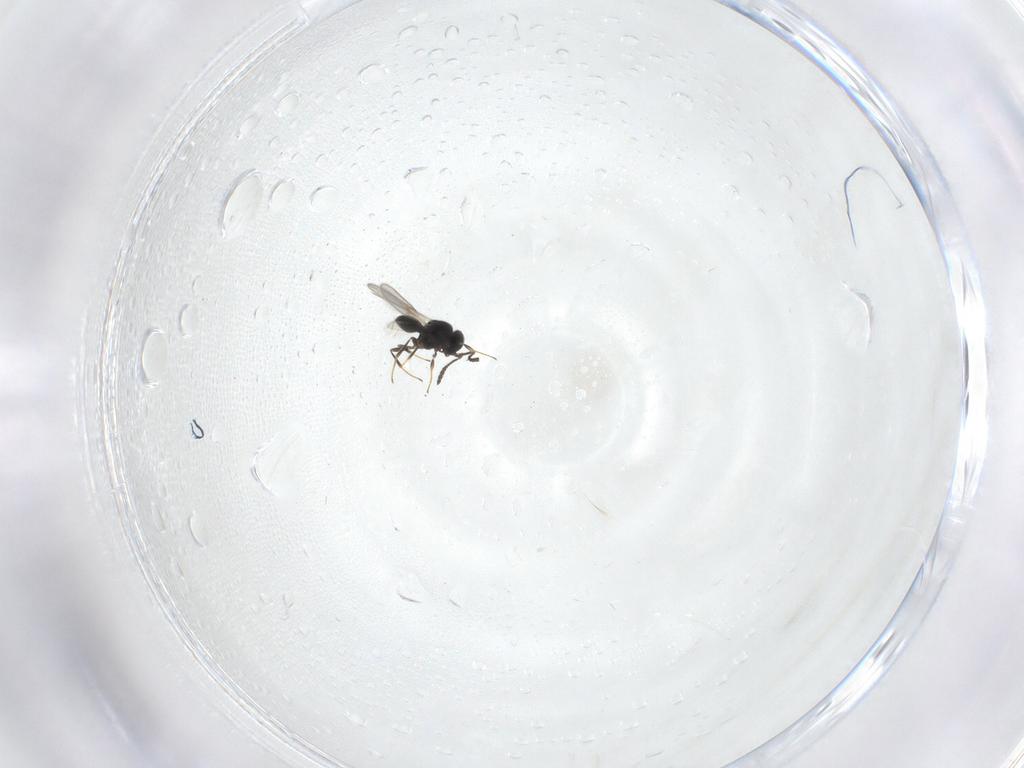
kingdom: Animalia
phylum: Arthropoda
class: Insecta
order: Hymenoptera
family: Scelionidae
